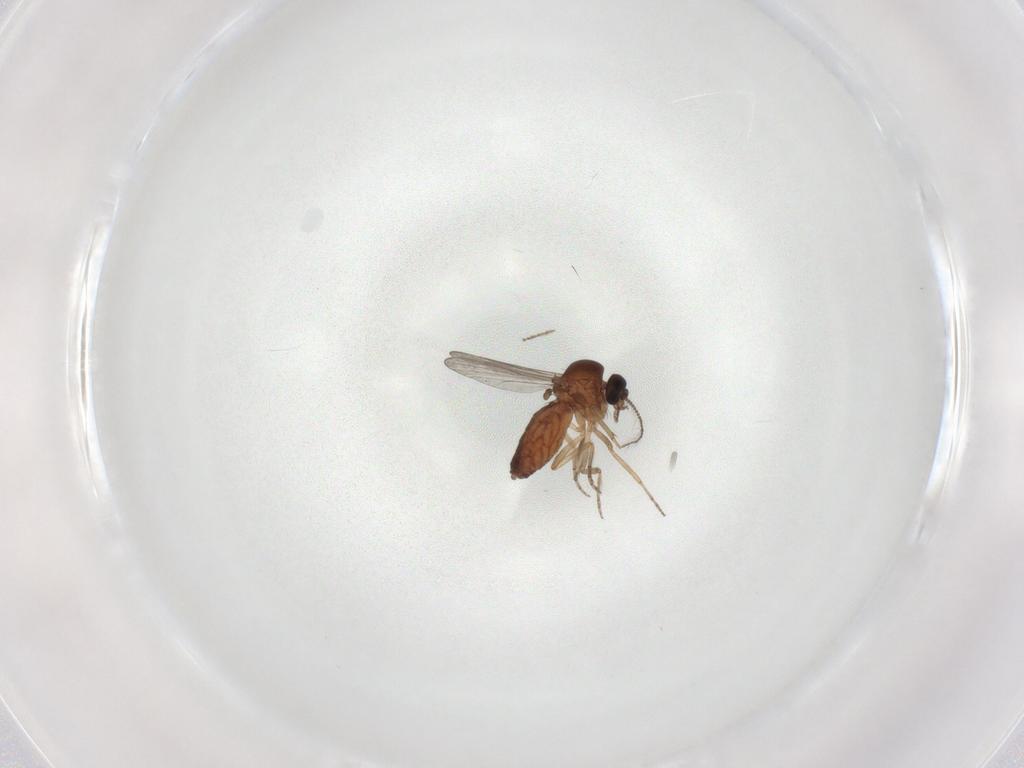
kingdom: Animalia
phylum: Arthropoda
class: Insecta
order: Diptera
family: Ceratopogonidae
